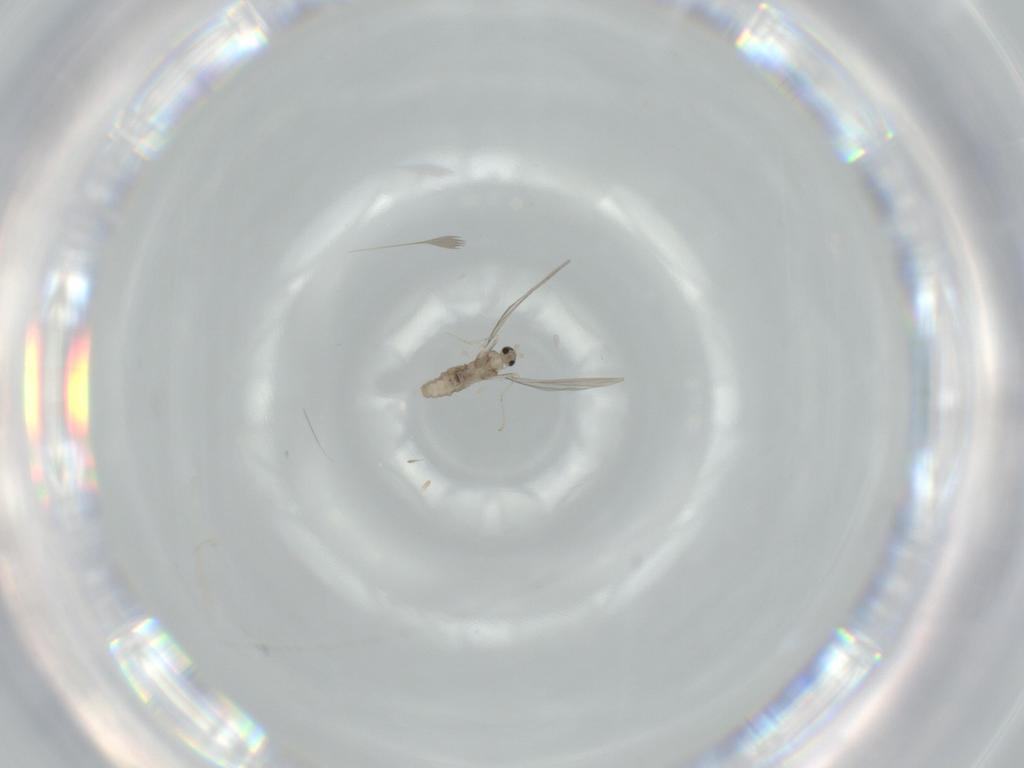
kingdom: Animalia
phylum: Arthropoda
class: Insecta
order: Diptera
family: Cecidomyiidae
